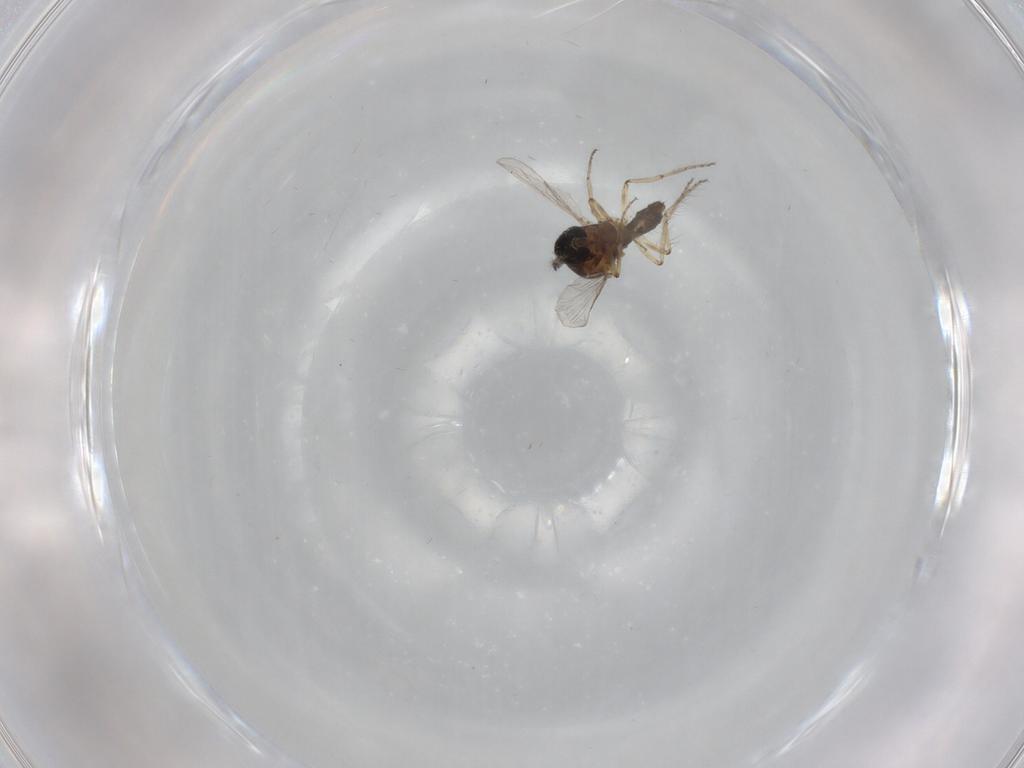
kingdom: Animalia
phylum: Arthropoda
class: Insecta
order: Diptera
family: Ceratopogonidae
